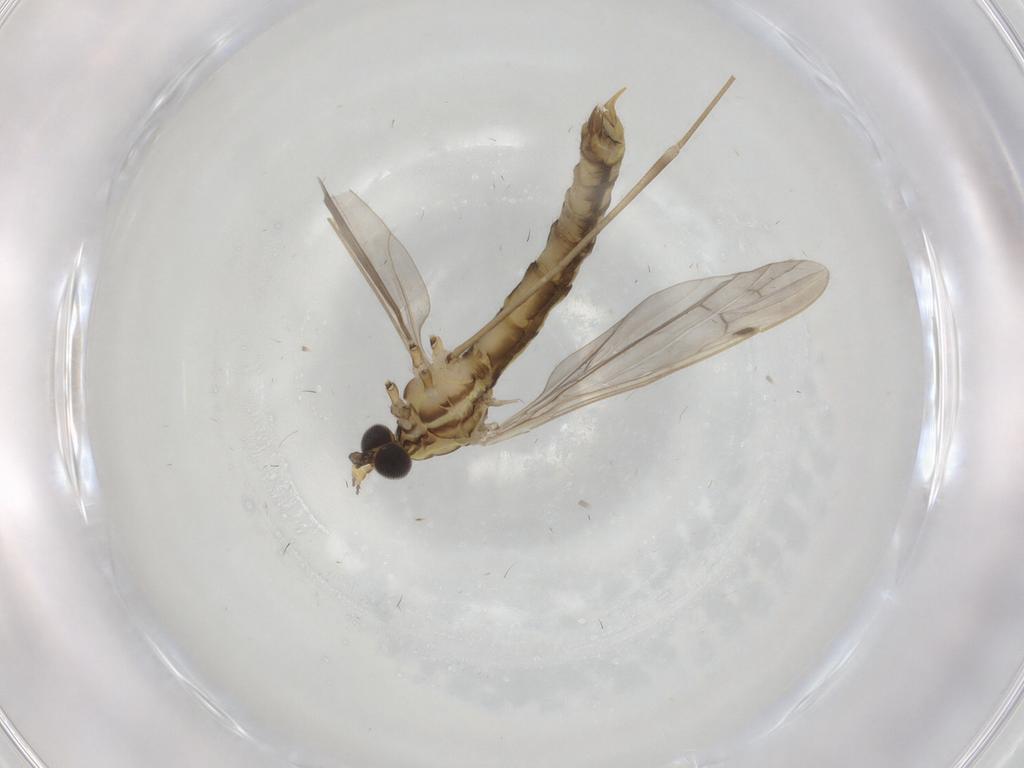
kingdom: Animalia
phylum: Arthropoda
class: Insecta
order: Diptera
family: Limoniidae
